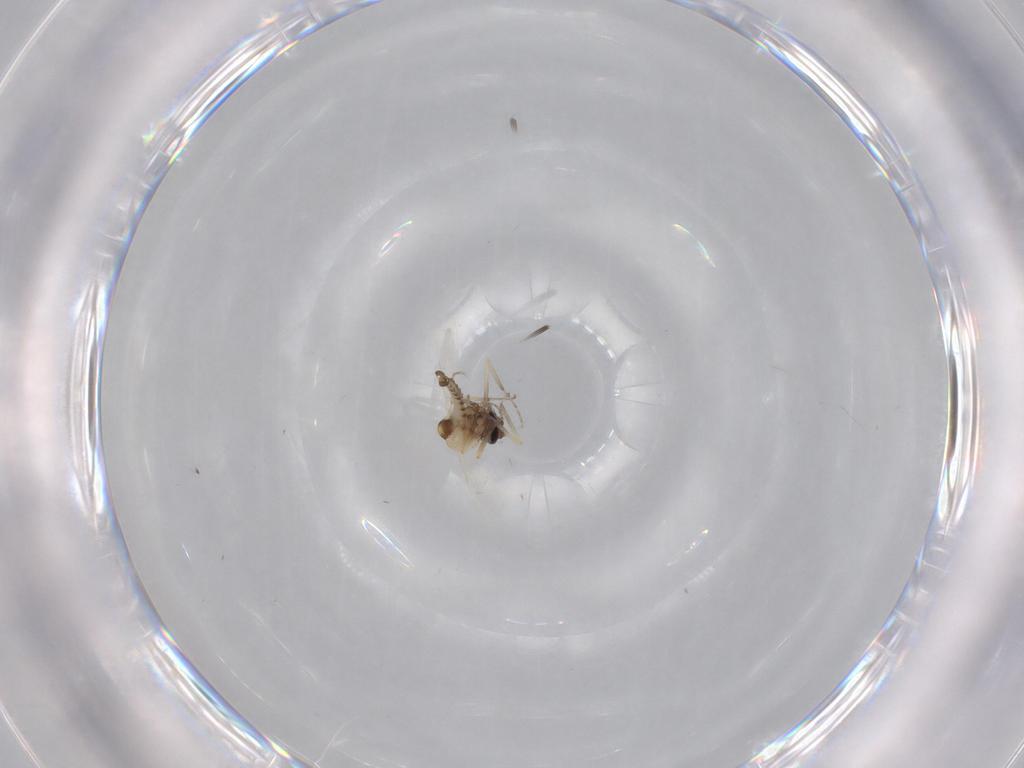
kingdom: Animalia
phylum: Arthropoda
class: Insecta
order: Diptera
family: Ceratopogonidae
